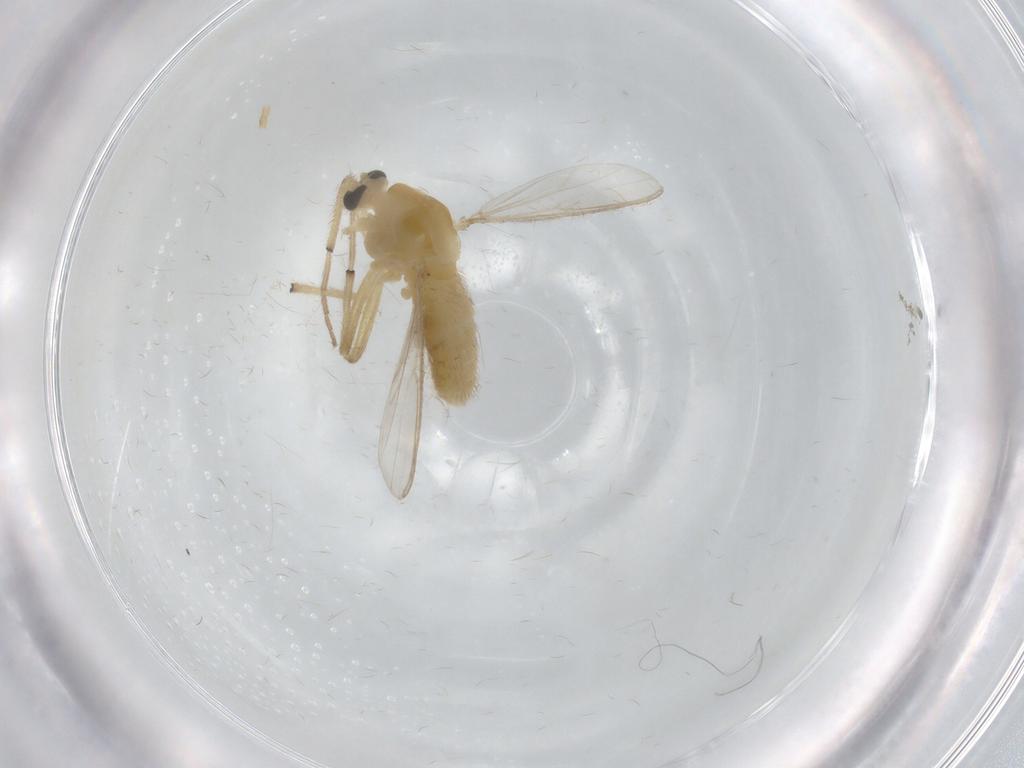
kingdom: Animalia
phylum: Arthropoda
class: Insecta
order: Diptera
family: Chironomidae
